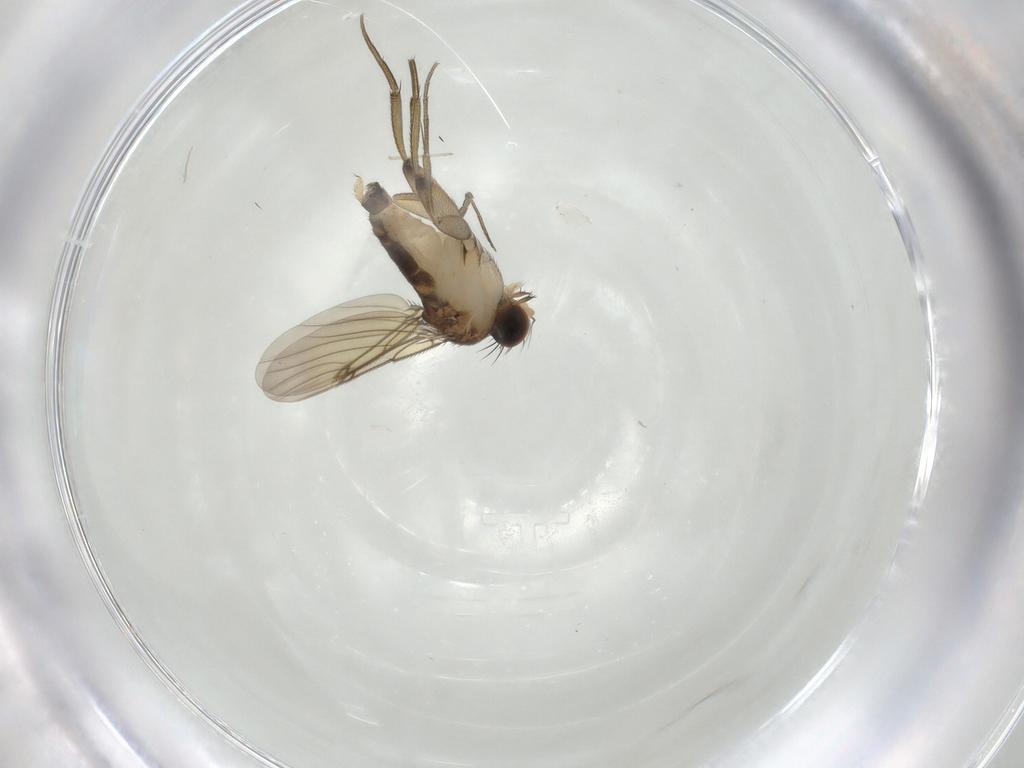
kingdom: Animalia
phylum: Arthropoda
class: Insecta
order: Diptera
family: Phoridae
